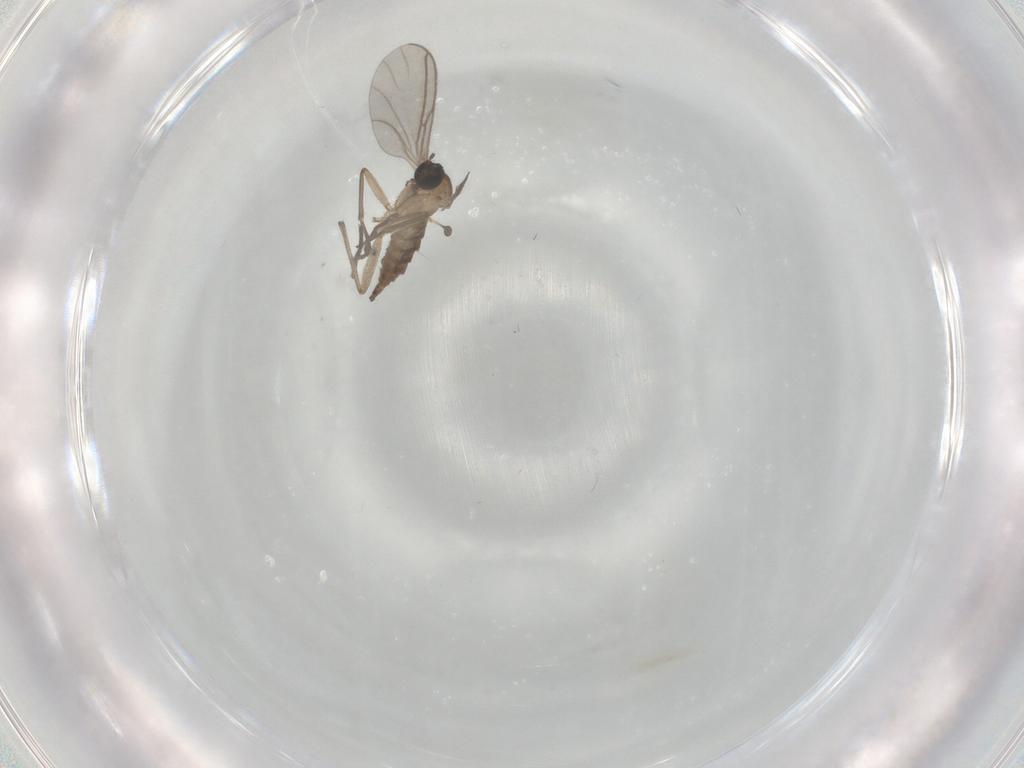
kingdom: Animalia
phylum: Arthropoda
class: Insecta
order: Diptera
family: Sciaridae
